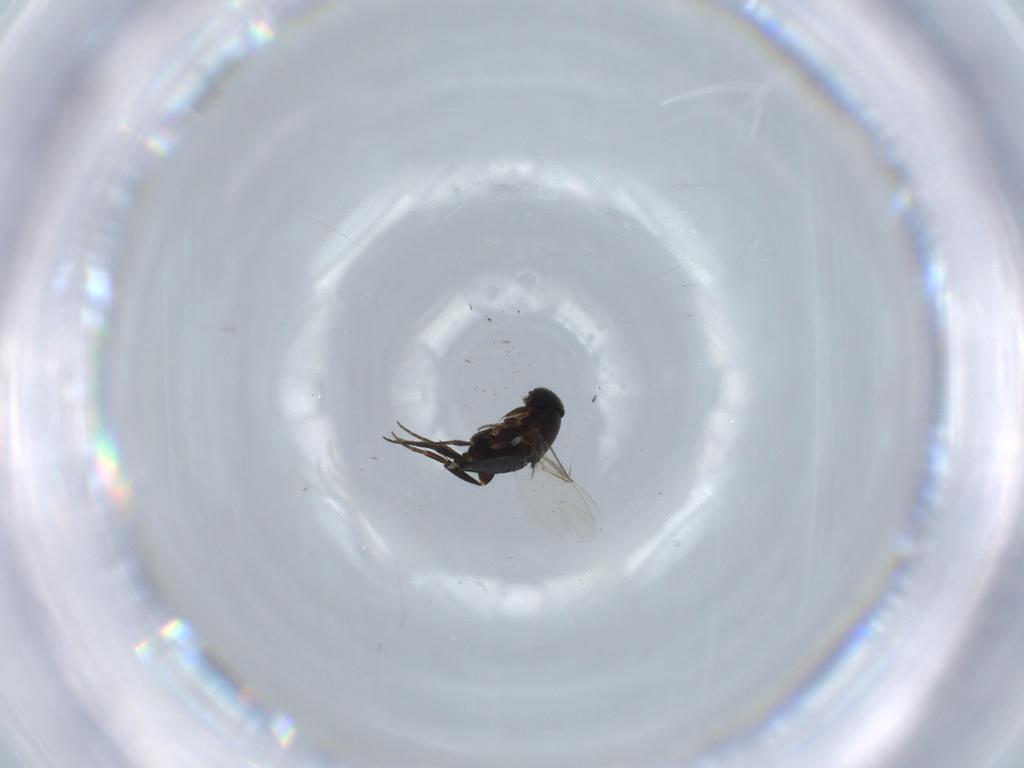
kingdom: Animalia
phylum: Arthropoda
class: Insecta
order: Diptera
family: Phoridae
